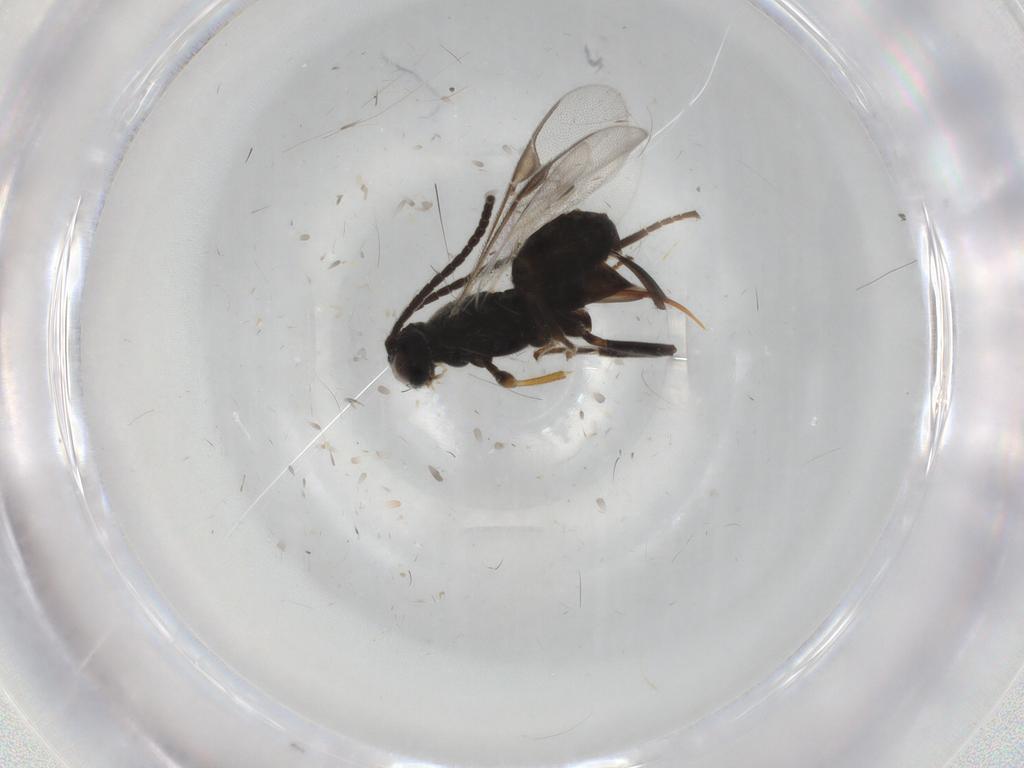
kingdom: Animalia
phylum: Arthropoda
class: Insecta
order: Hymenoptera
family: Braconidae
